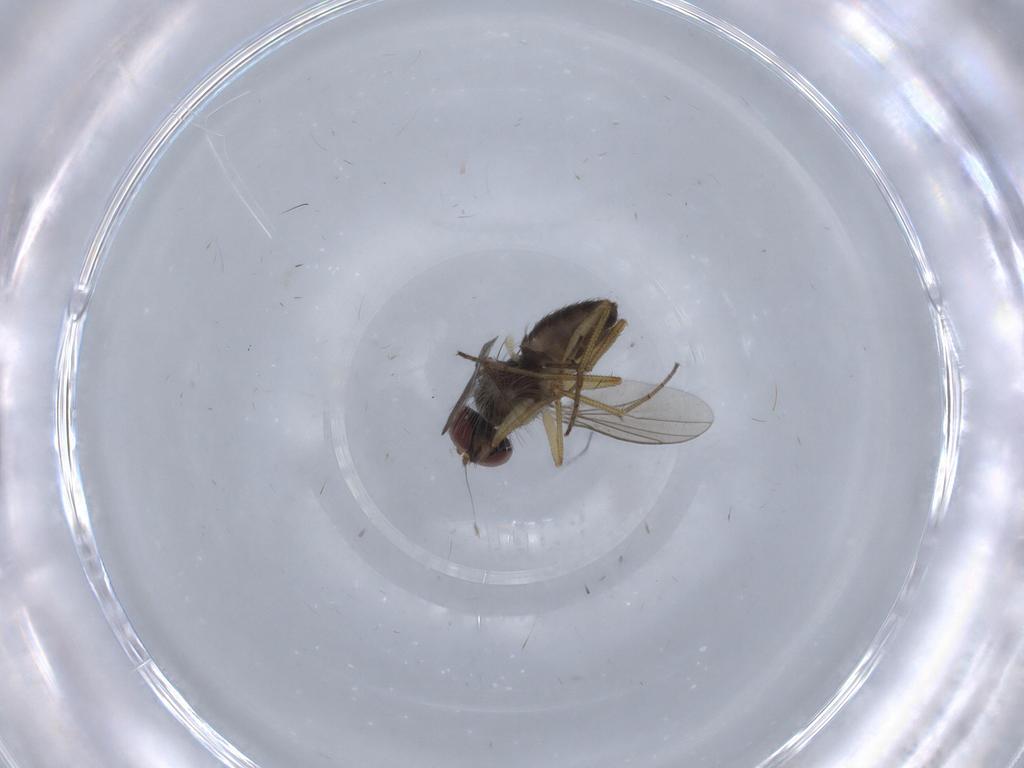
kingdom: Animalia
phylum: Arthropoda
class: Insecta
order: Diptera
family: Dolichopodidae
